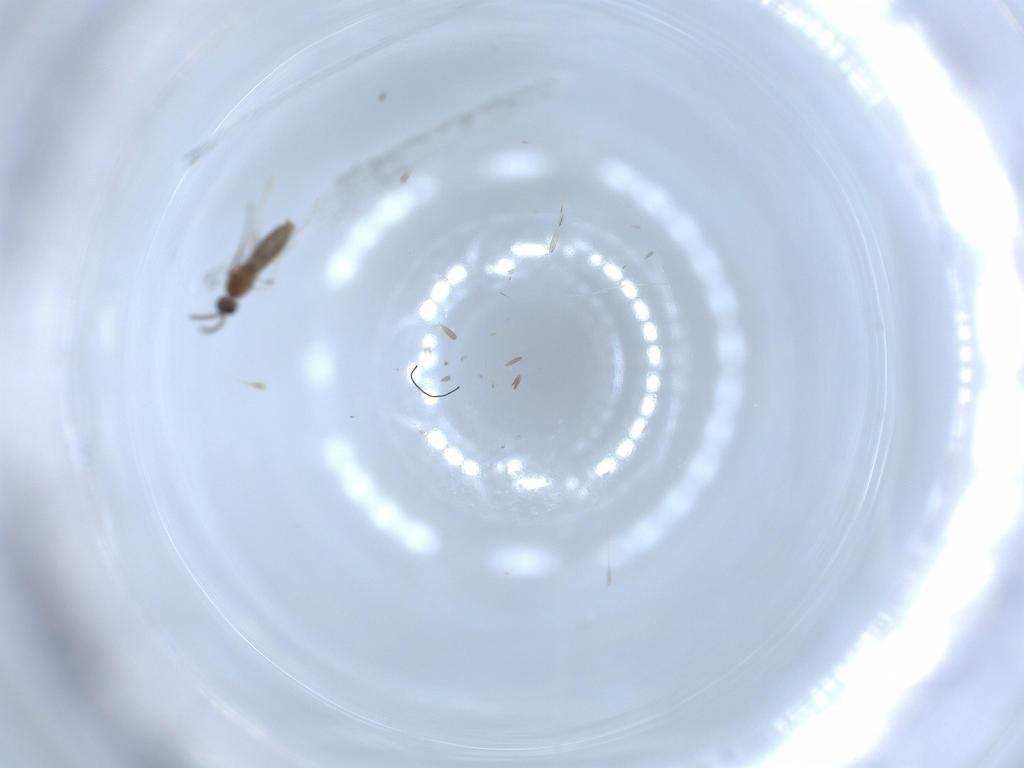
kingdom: Animalia
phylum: Arthropoda
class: Insecta
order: Diptera
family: Cecidomyiidae
